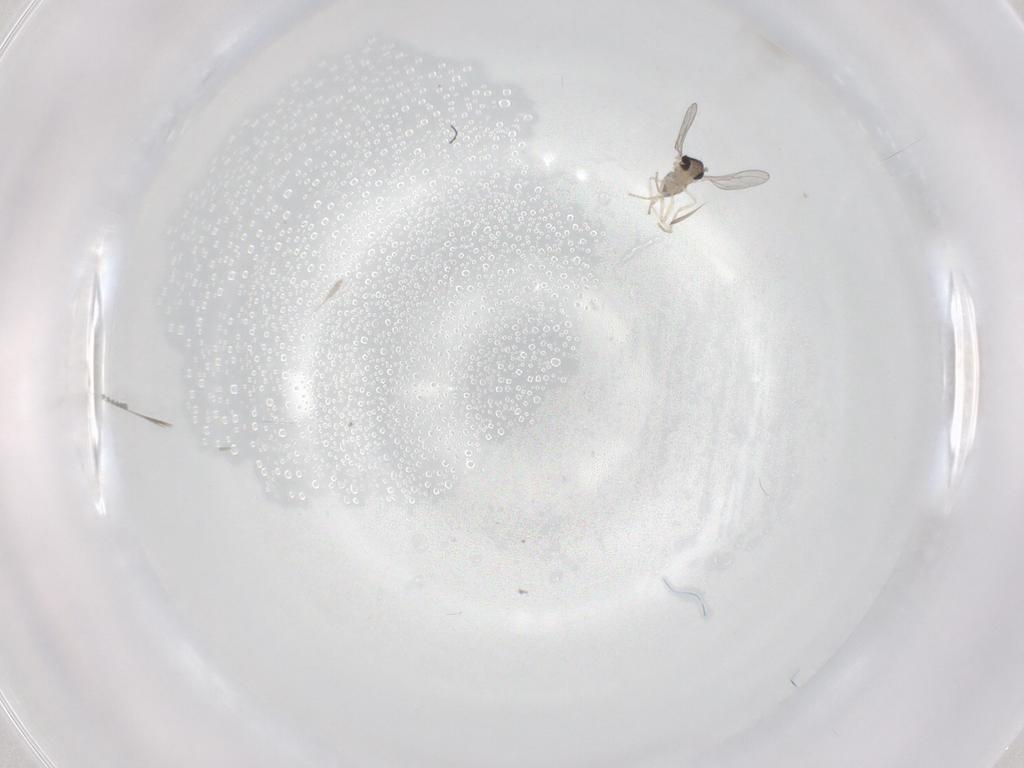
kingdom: Animalia
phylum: Arthropoda
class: Insecta
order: Diptera
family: Cecidomyiidae
